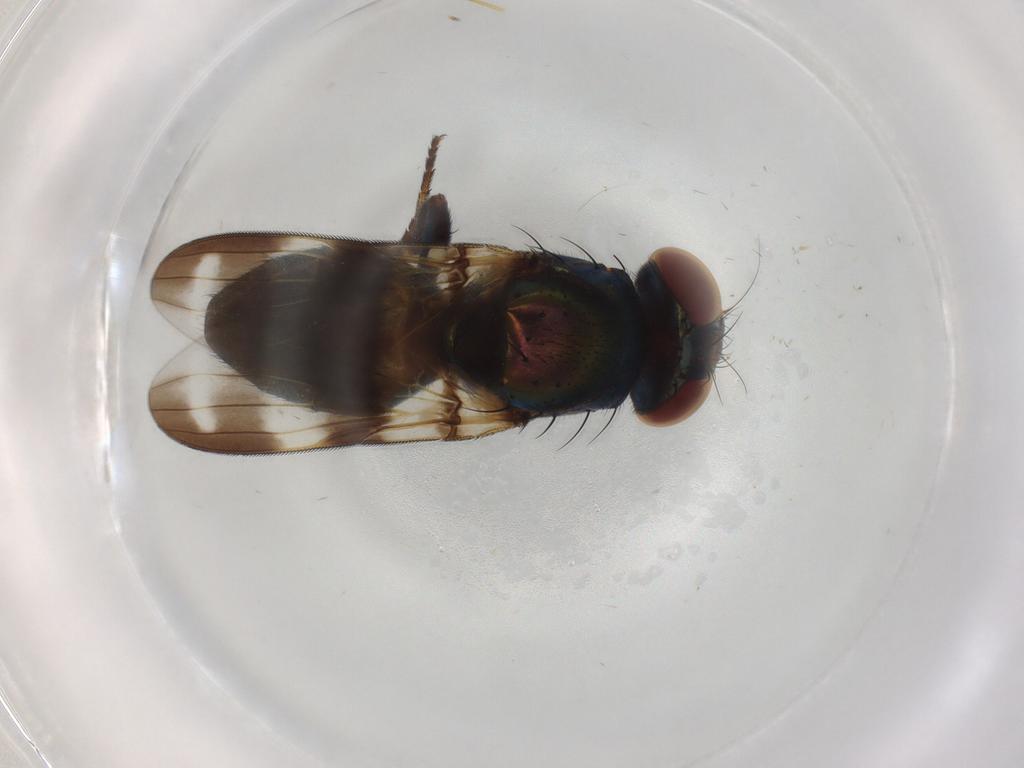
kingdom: Animalia
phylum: Arthropoda
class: Insecta
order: Diptera
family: Ulidiidae
